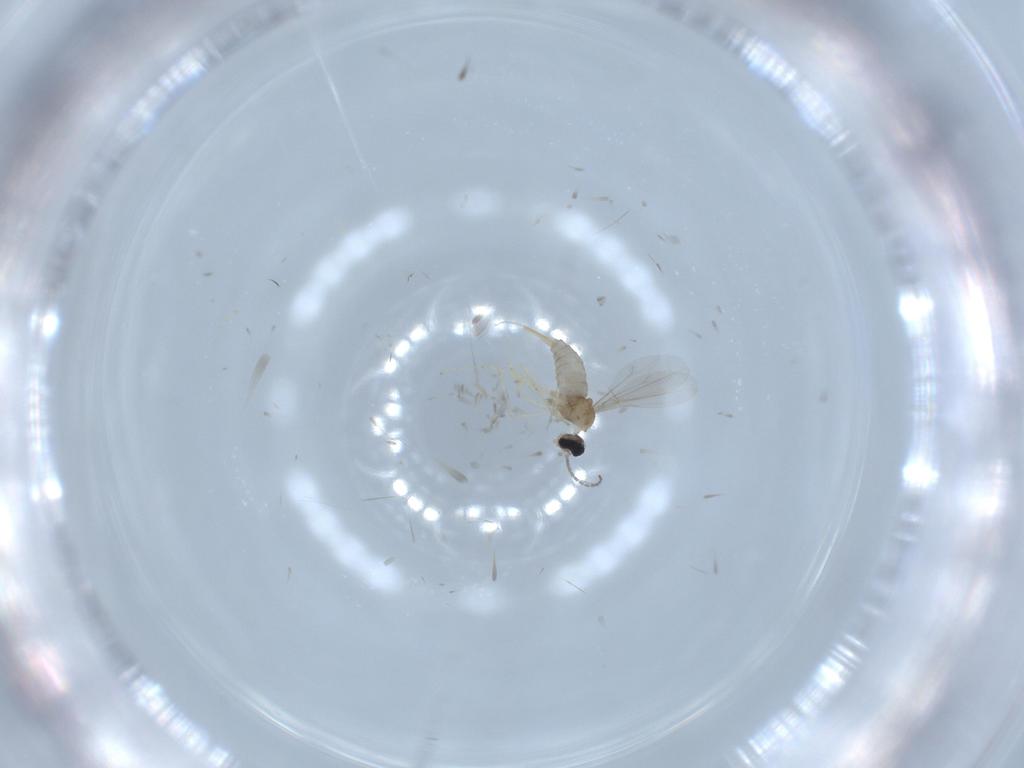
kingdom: Animalia
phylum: Arthropoda
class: Insecta
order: Diptera
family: Cecidomyiidae
